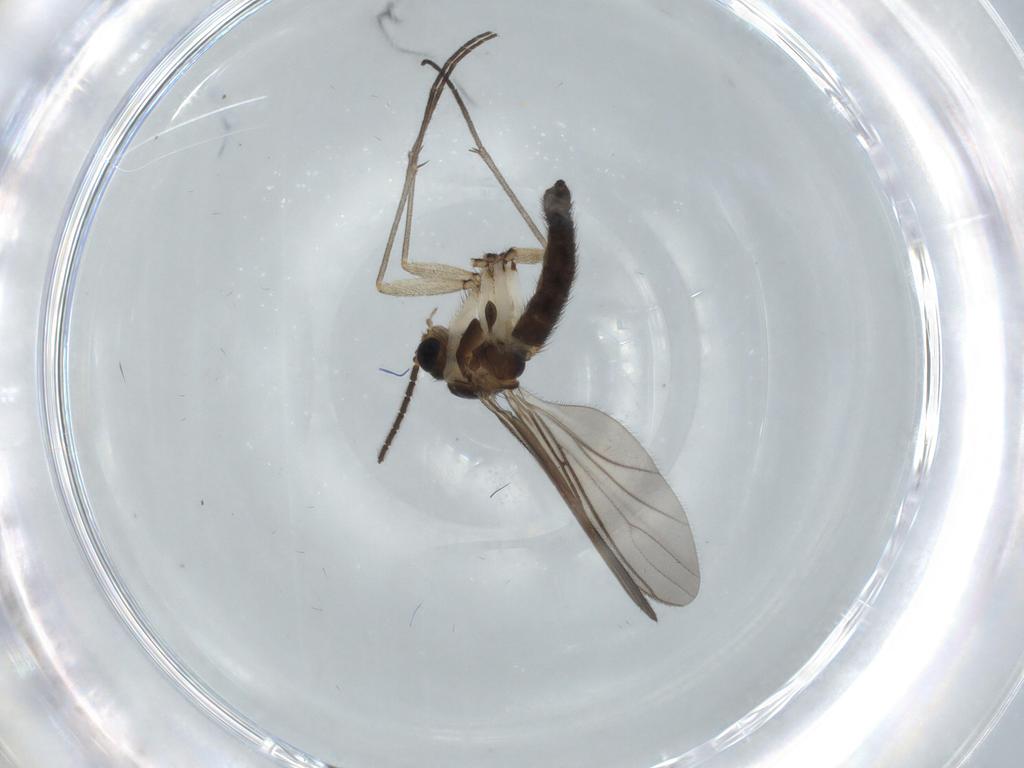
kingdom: Animalia
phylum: Arthropoda
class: Insecta
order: Diptera
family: Sciaridae
